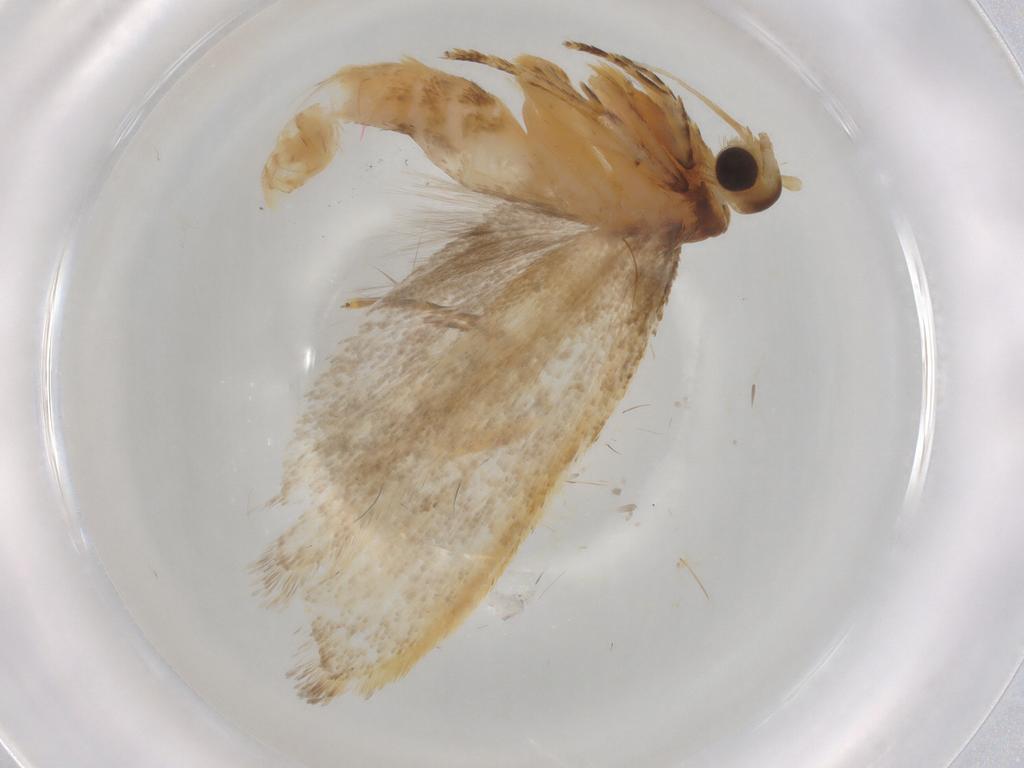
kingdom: Animalia
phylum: Arthropoda
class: Insecta
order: Lepidoptera
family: Lecithoceridae
